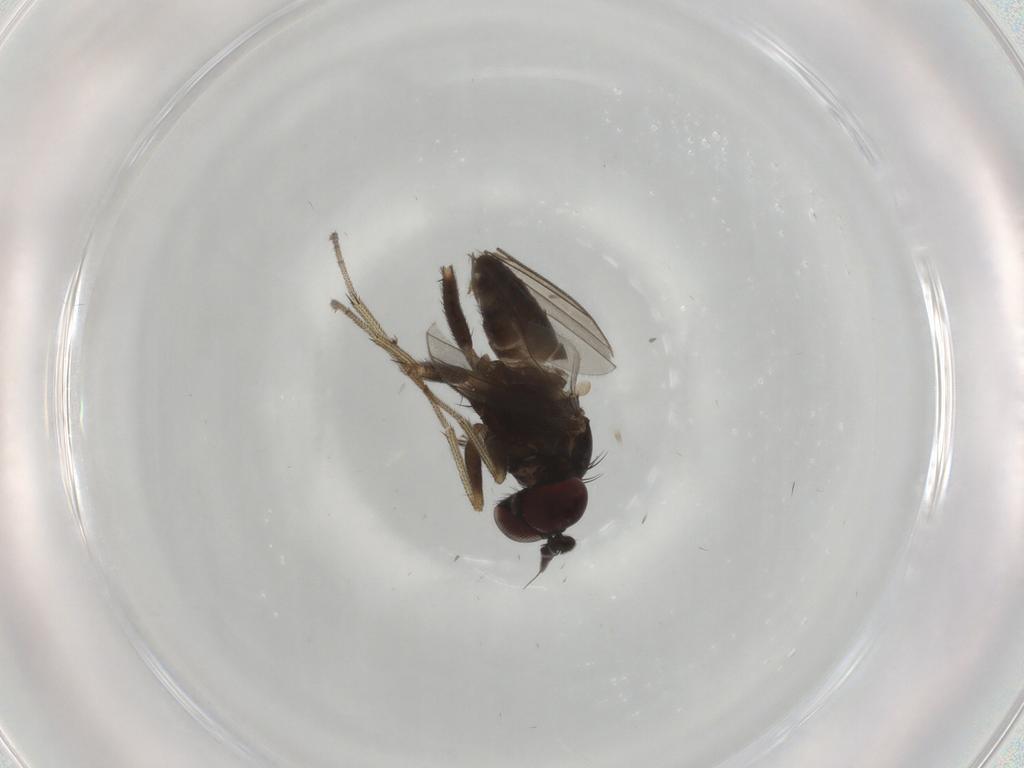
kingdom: Animalia
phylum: Arthropoda
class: Insecta
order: Diptera
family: Dolichopodidae
